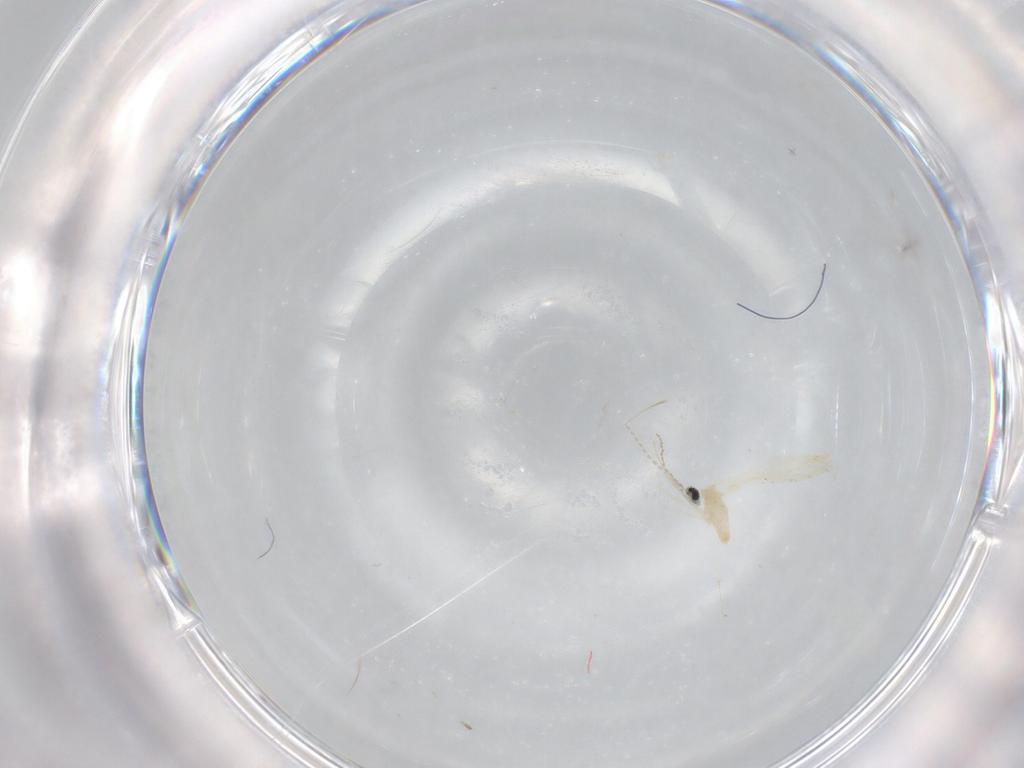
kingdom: Animalia
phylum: Arthropoda
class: Insecta
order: Diptera
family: Cecidomyiidae
